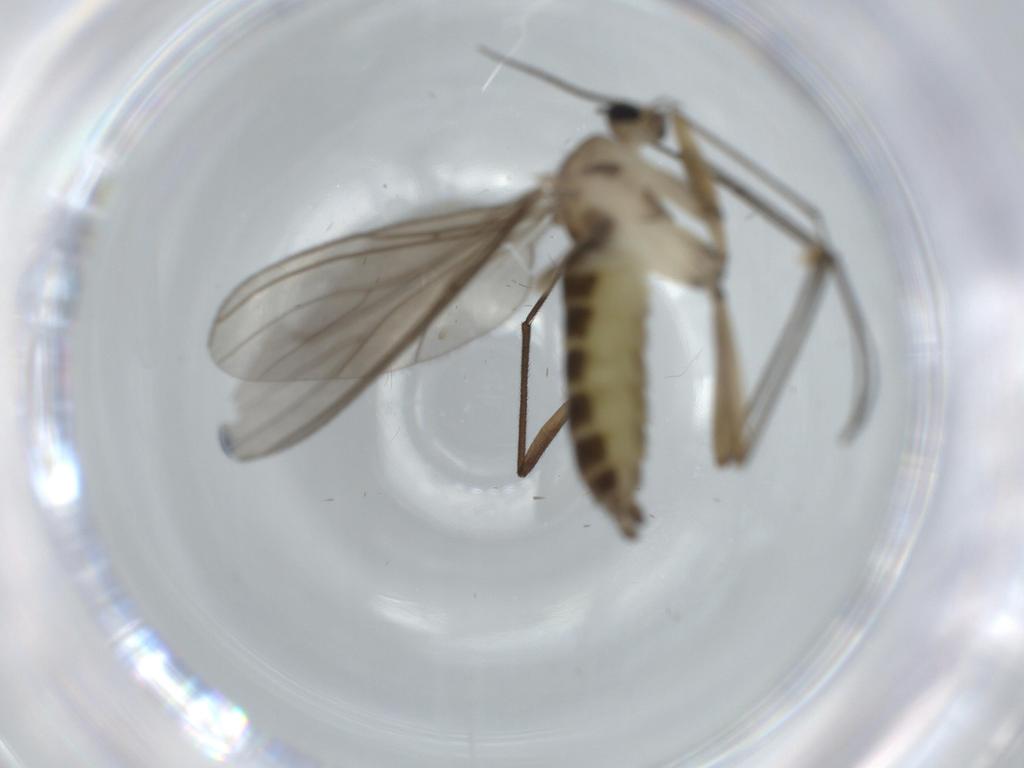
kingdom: Animalia
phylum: Arthropoda
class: Insecta
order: Diptera
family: Sciaridae
